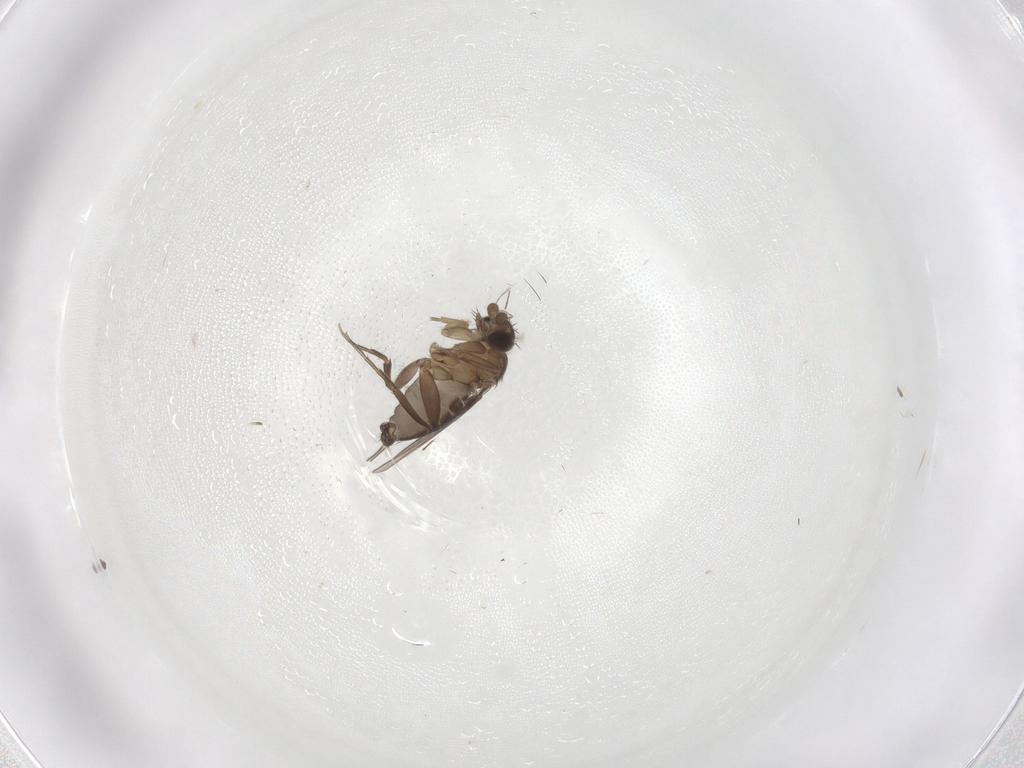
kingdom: Animalia
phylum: Arthropoda
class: Insecta
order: Diptera
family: Phoridae
